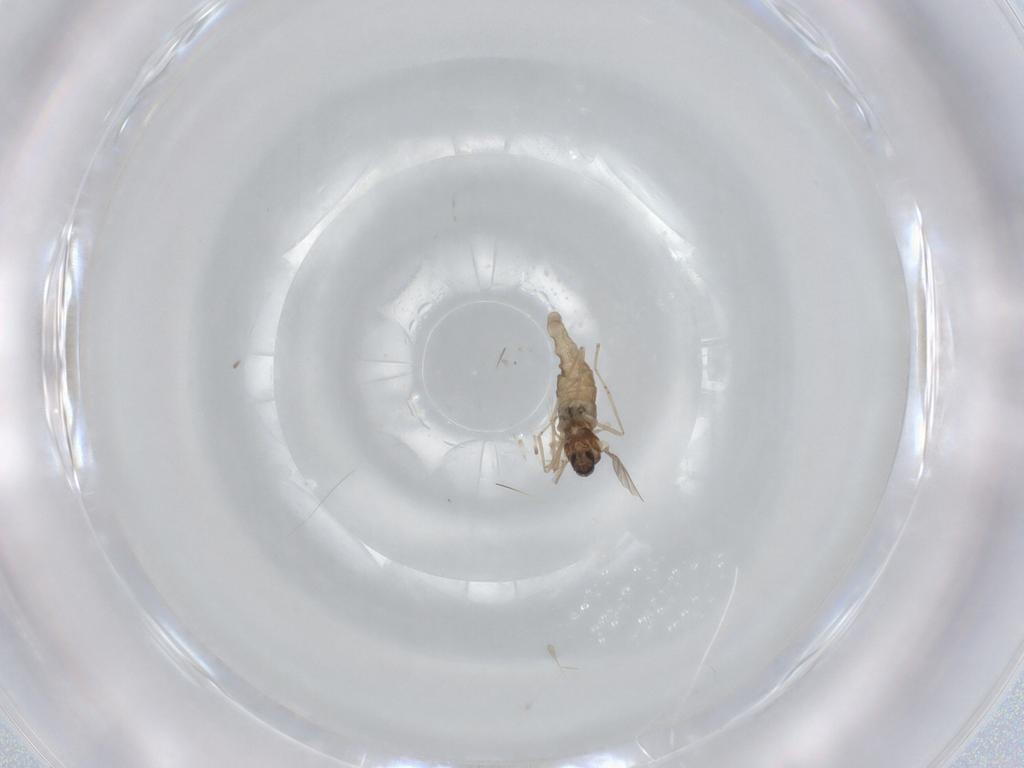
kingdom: Animalia
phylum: Arthropoda
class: Insecta
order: Diptera
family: Cecidomyiidae
